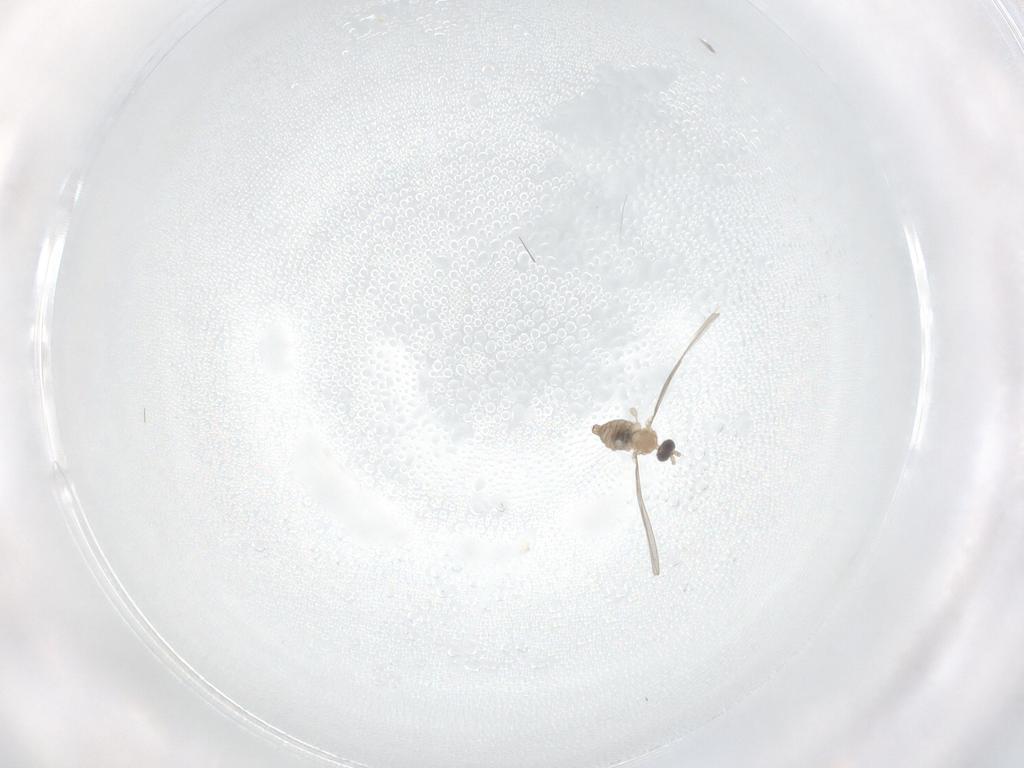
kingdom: Animalia
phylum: Arthropoda
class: Insecta
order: Diptera
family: Cecidomyiidae
